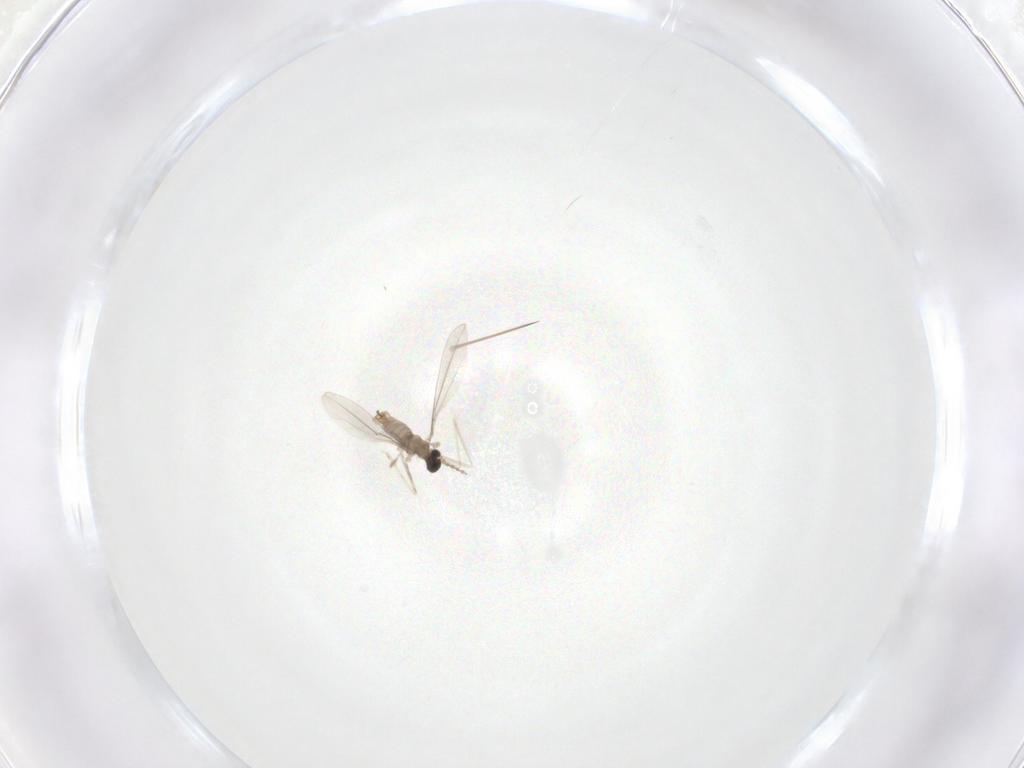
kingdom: Animalia
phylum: Arthropoda
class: Insecta
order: Diptera
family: Cecidomyiidae
